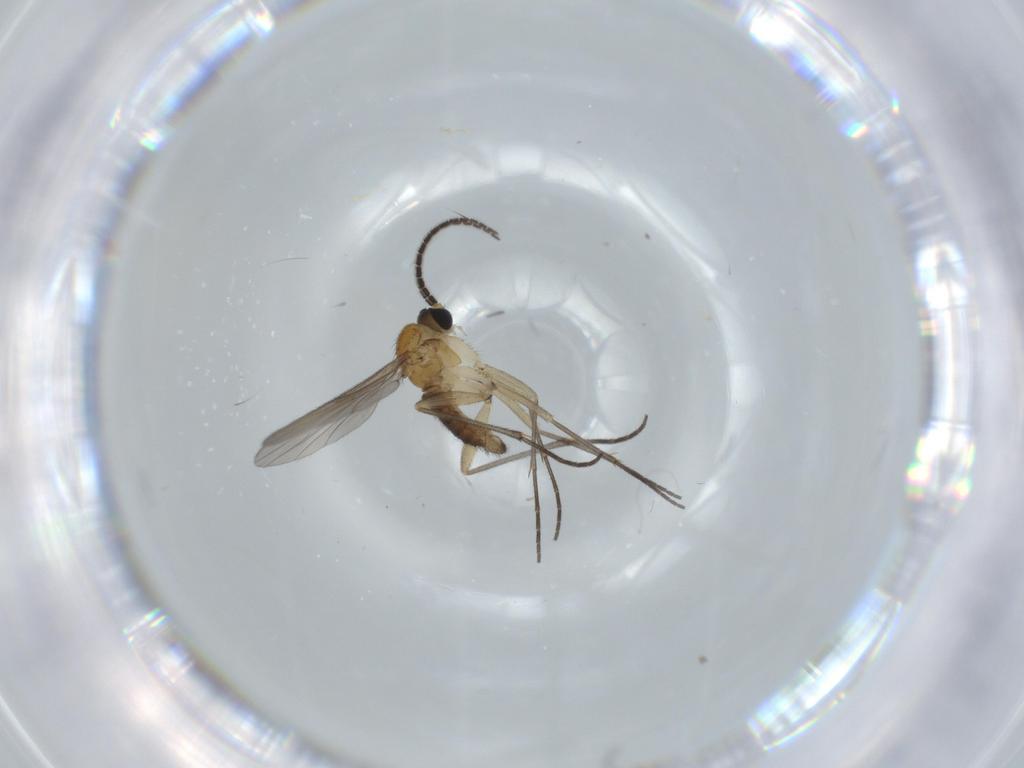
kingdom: Animalia
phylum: Arthropoda
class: Insecta
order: Diptera
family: Sciaridae
